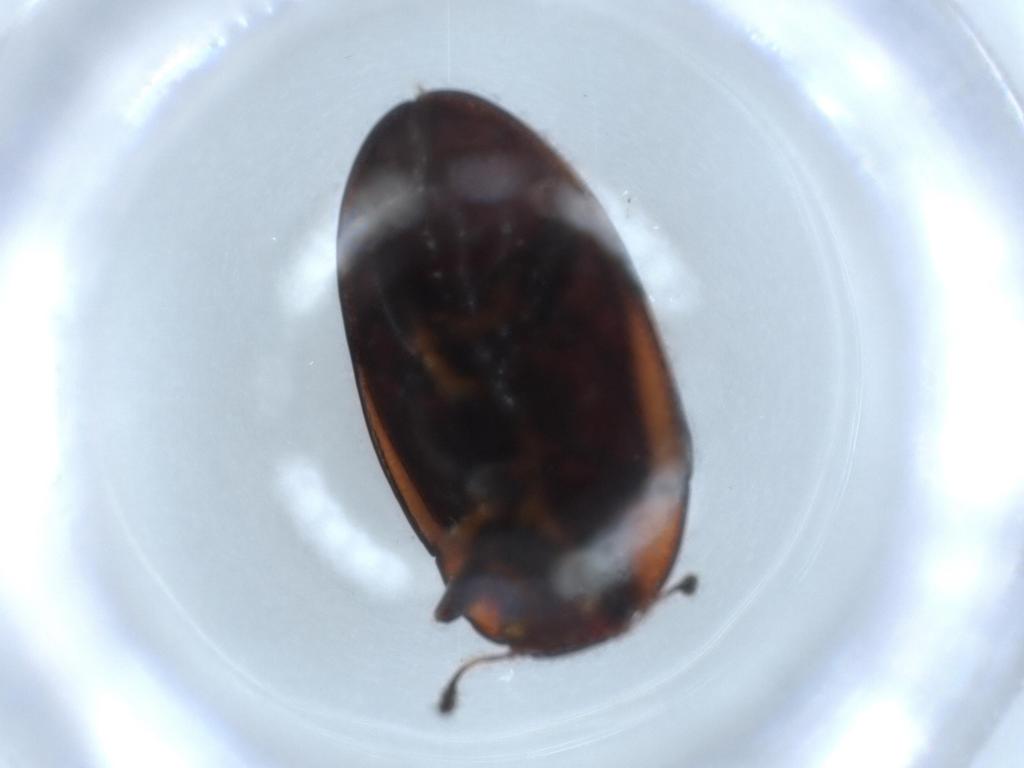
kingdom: Animalia
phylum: Arthropoda
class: Insecta
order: Coleoptera
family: Erotylidae
